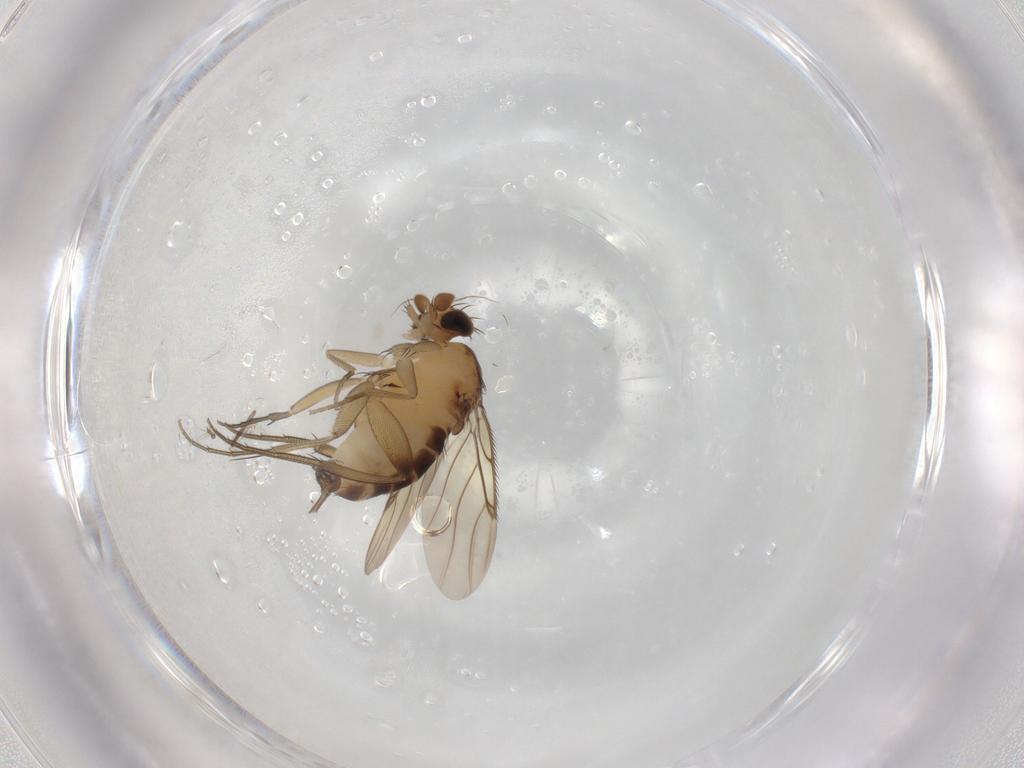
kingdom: Animalia
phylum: Arthropoda
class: Insecta
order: Diptera
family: Phoridae
